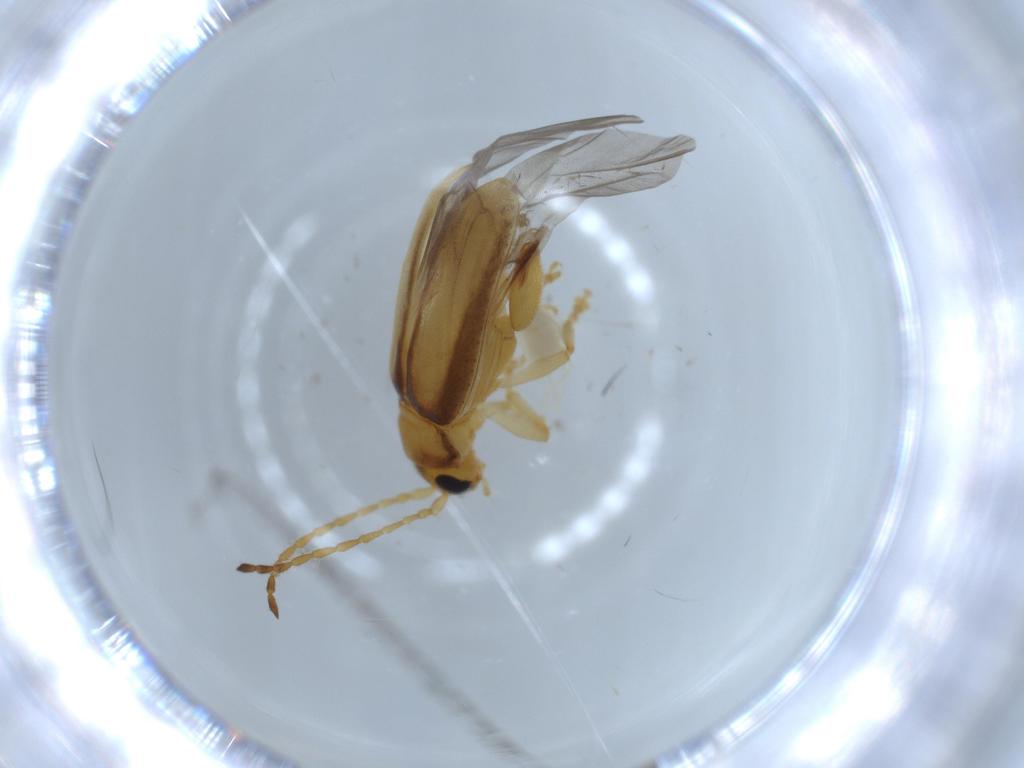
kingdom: Animalia
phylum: Arthropoda
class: Insecta
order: Coleoptera
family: Chrysomelidae
